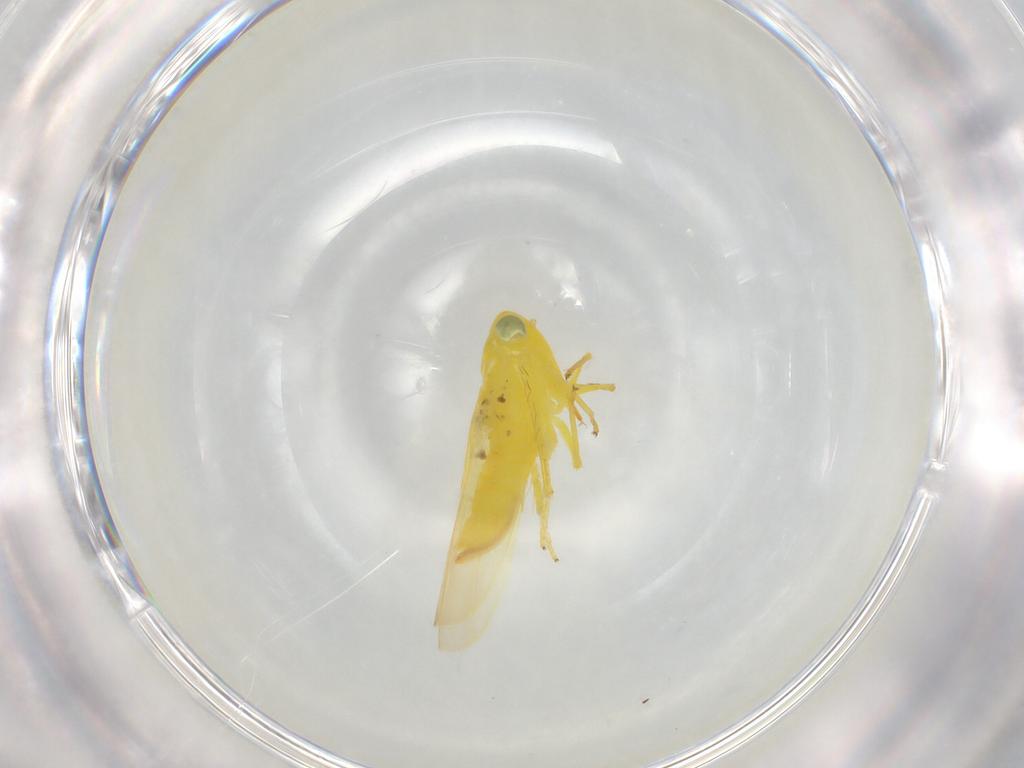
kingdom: Animalia
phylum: Arthropoda
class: Insecta
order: Hemiptera
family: Cicadellidae
